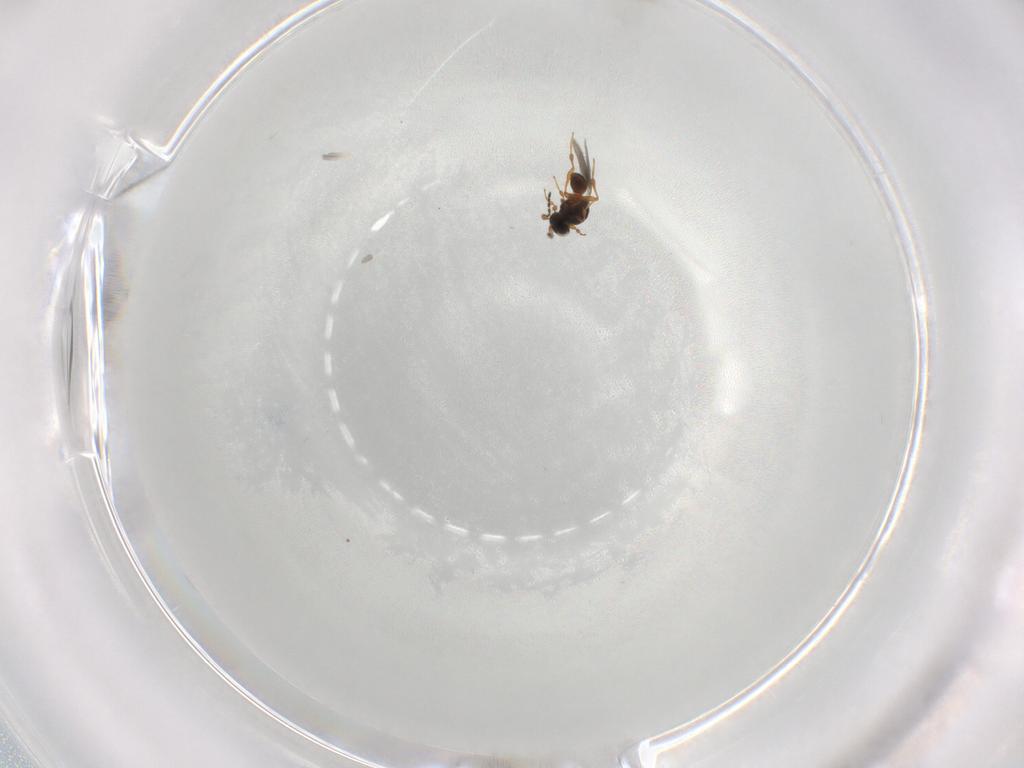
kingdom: Animalia
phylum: Arthropoda
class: Insecta
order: Hymenoptera
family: Platygastridae
